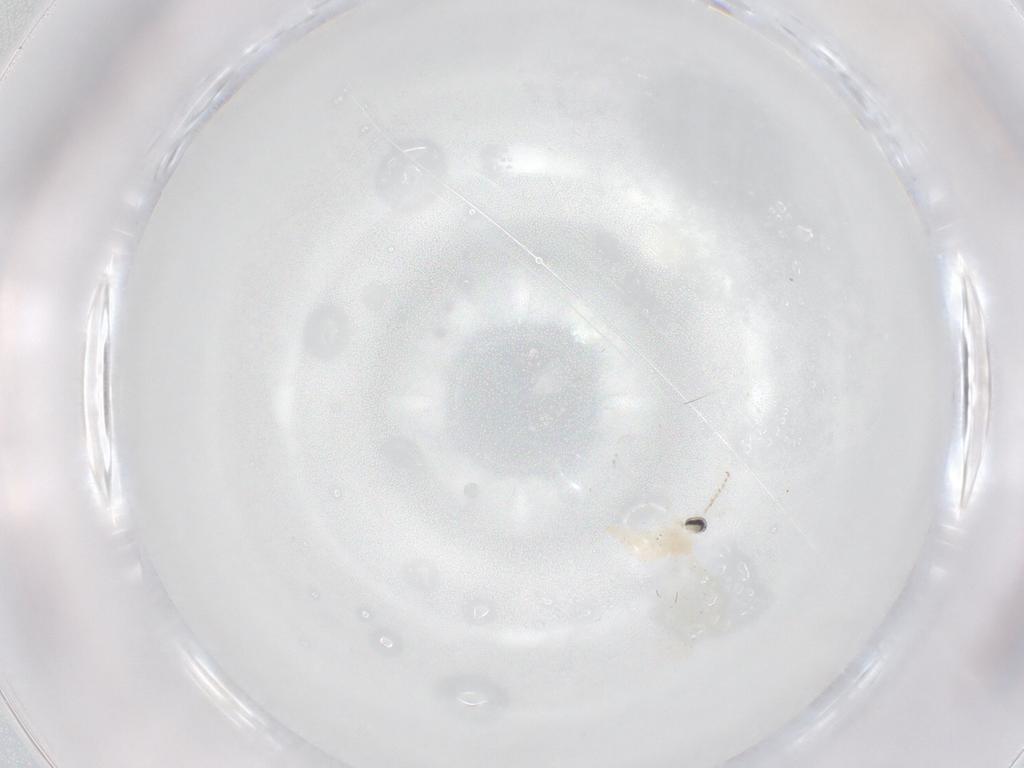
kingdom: Animalia
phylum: Arthropoda
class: Insecta
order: Diptera
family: Cecidomyiidae
